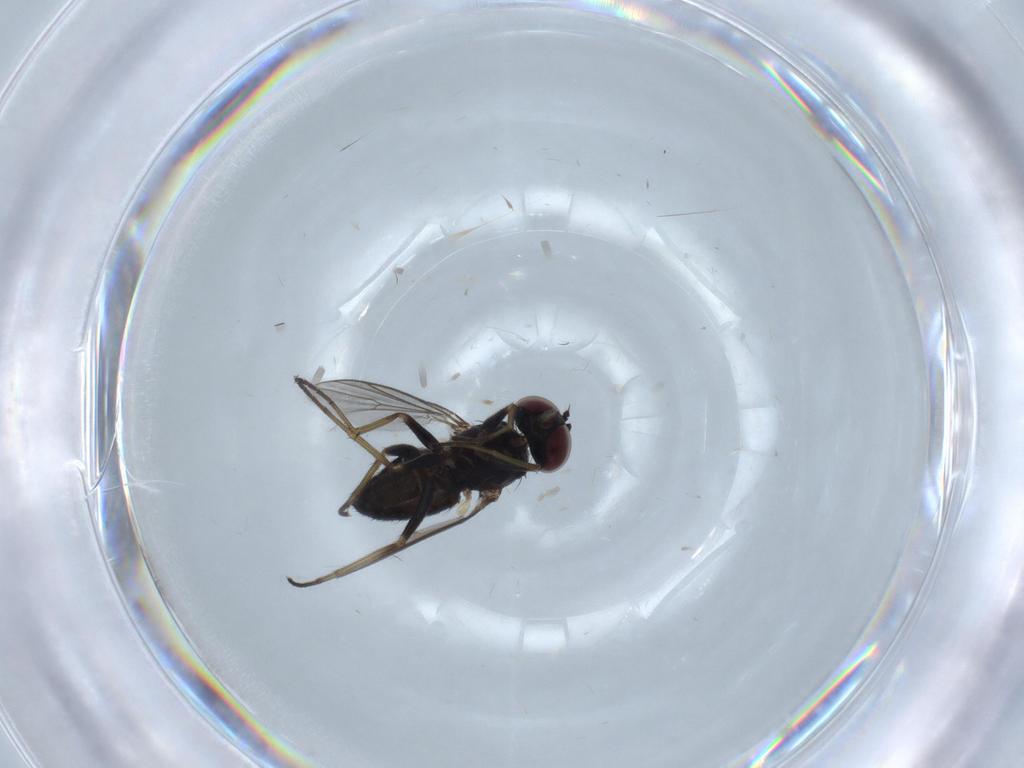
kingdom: Animalia
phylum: Arthropoda
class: Insecta
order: Diptera
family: Dolichopodidae
